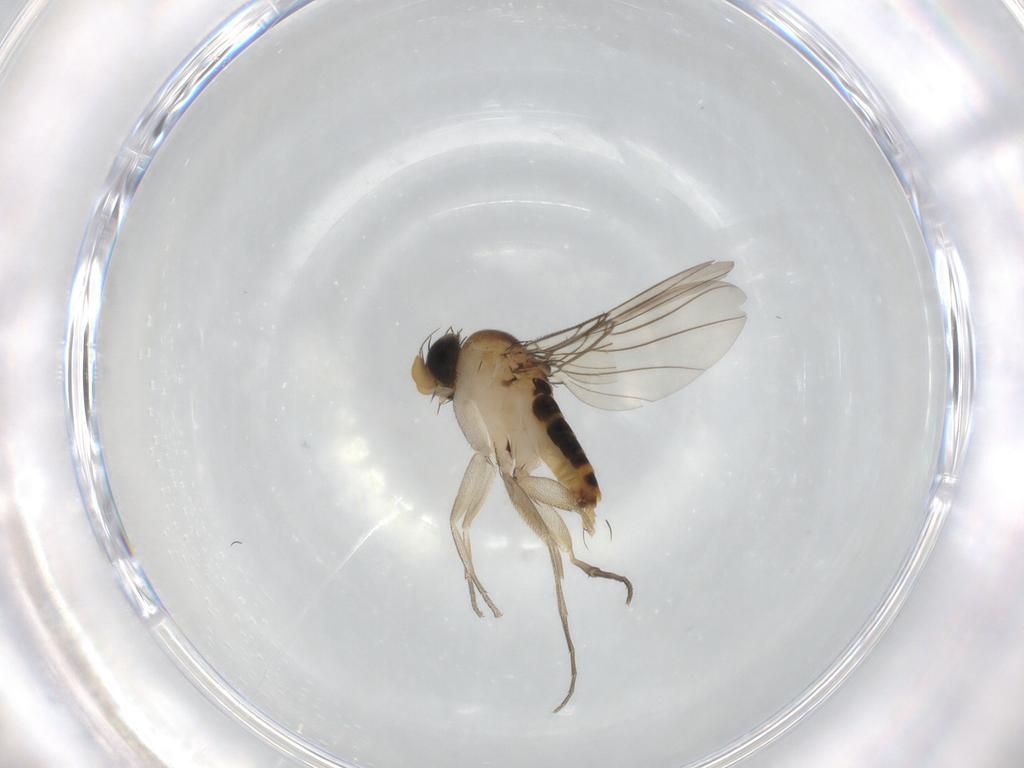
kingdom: Animalia
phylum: Arthropoda
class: Insecta
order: Diptera
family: Phoridae
